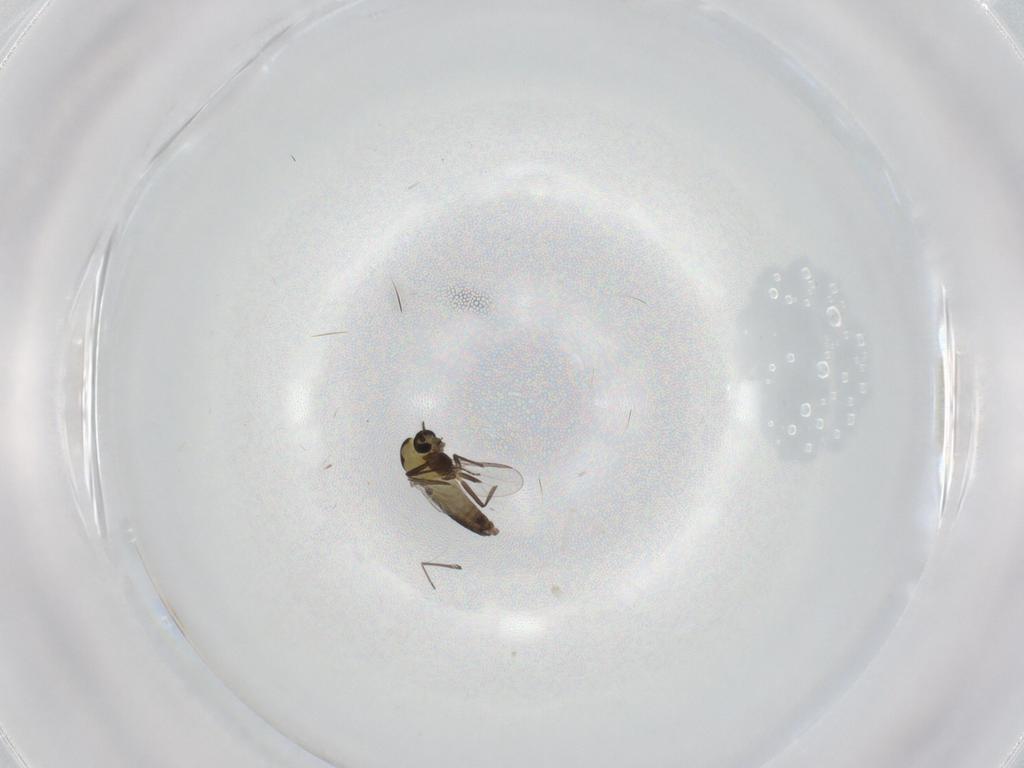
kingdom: Animalia
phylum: Arthropoda
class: Insecta
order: Diptera
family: Chironomidae
